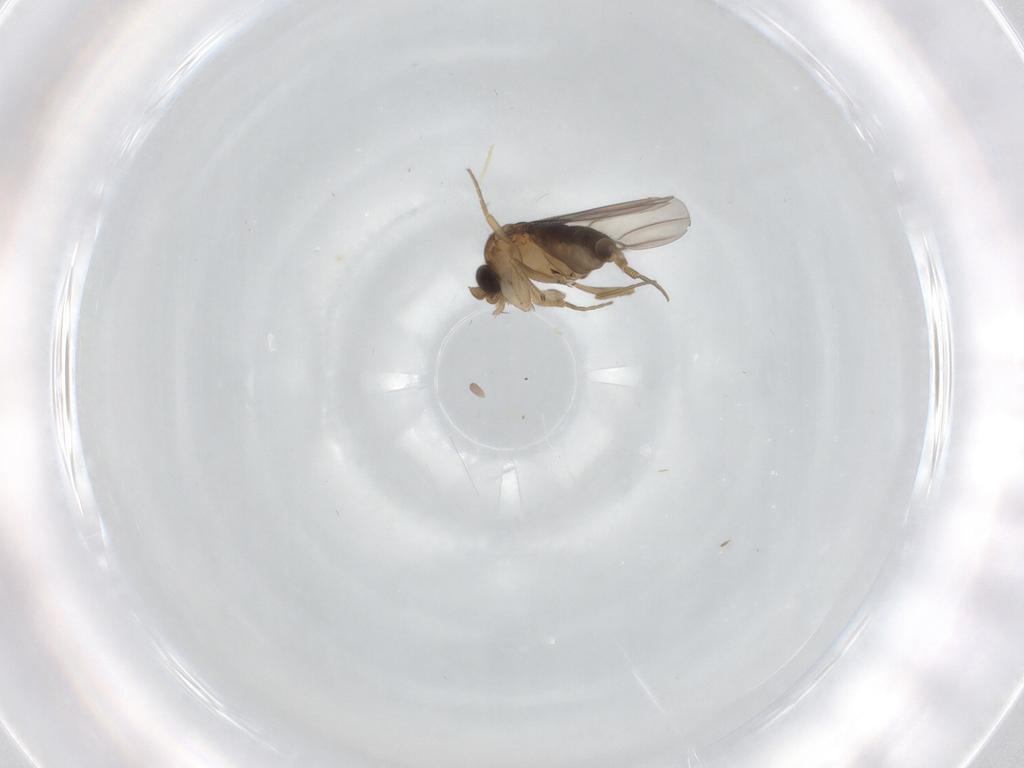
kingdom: Animalia
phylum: Arthropoda
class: Insecta
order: Diptera
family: Phoridae
